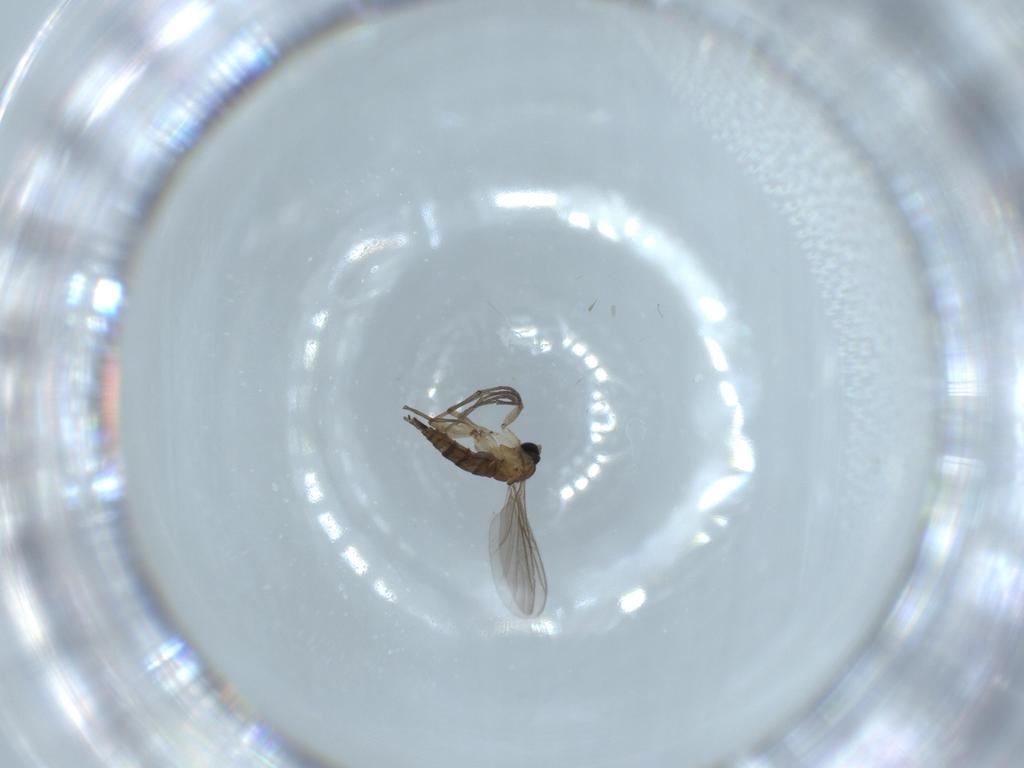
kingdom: Animalia
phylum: Arthropoda
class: Insecta
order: Diptera
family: Sciaridae
